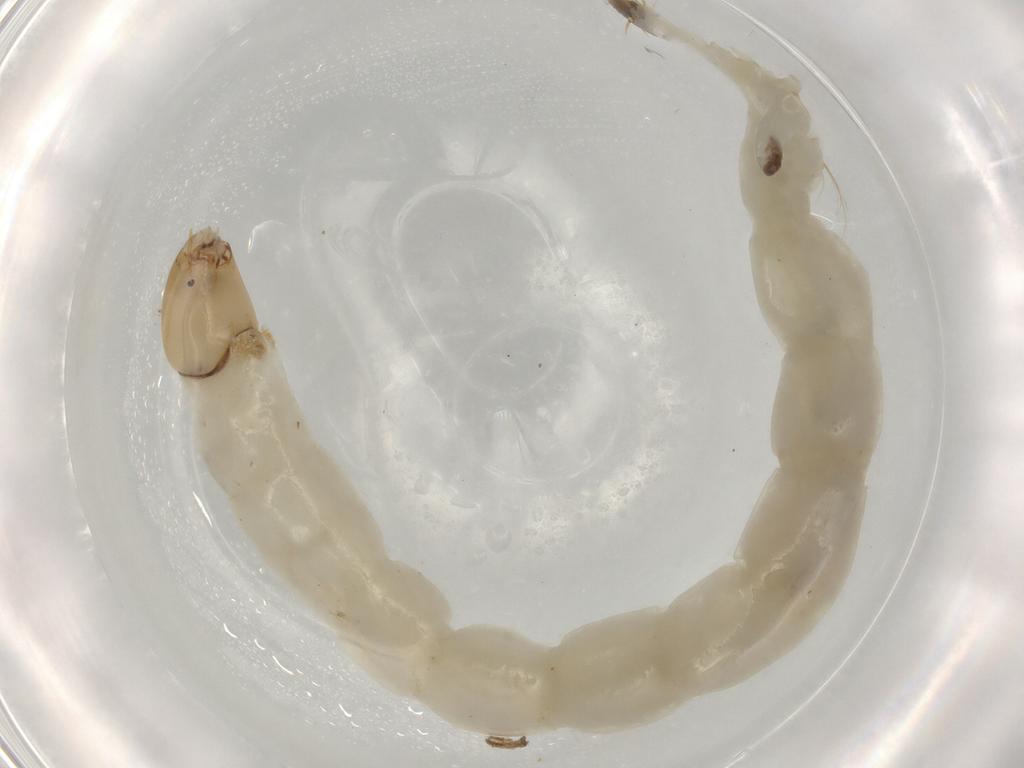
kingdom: Animalia
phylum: Arthropoda
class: Insecta
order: Diptera
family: Chironomidae
